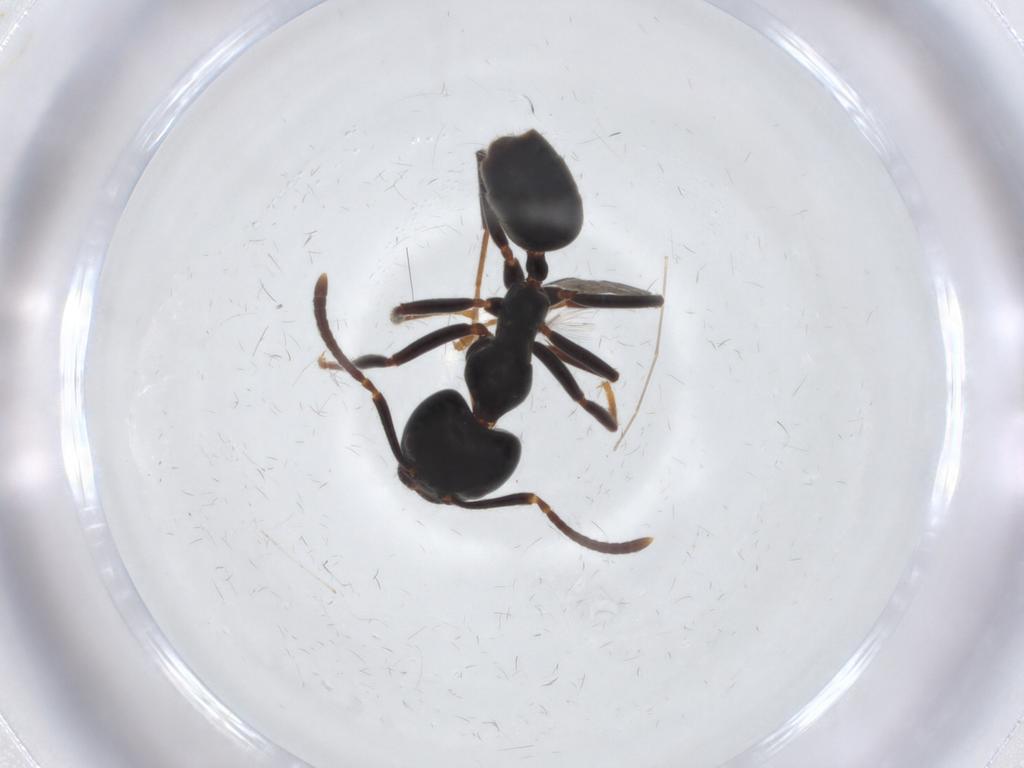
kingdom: Animalia
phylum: Arthropoda
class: Insecta
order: Hymenoptera
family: Formicidae
